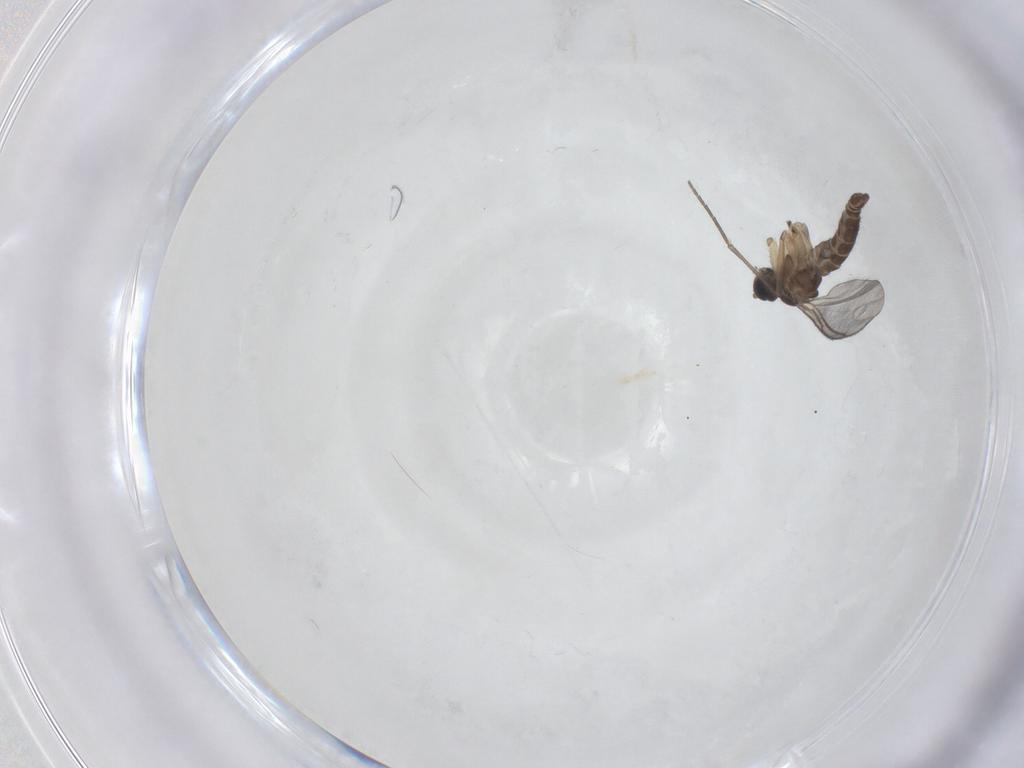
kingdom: Animalia
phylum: Arthropoda
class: Insecta
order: Diptera
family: Sciaridae
